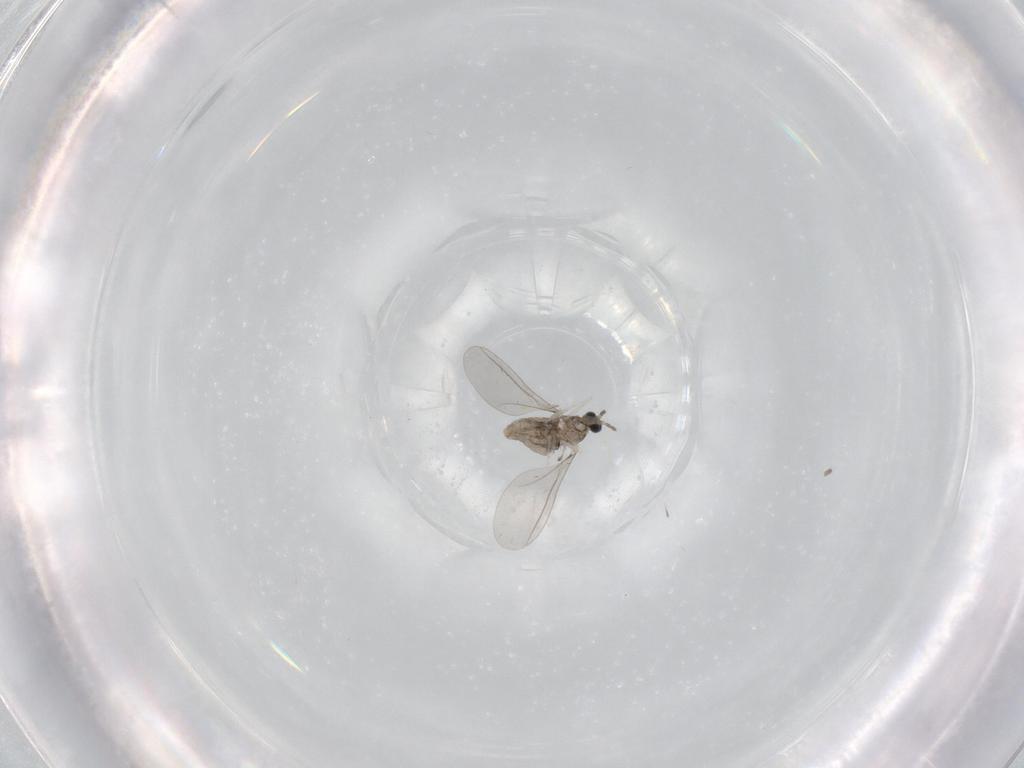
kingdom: Animalia
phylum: Arthropoda
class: Insecta
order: Diptera
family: Cecidomyiidae
